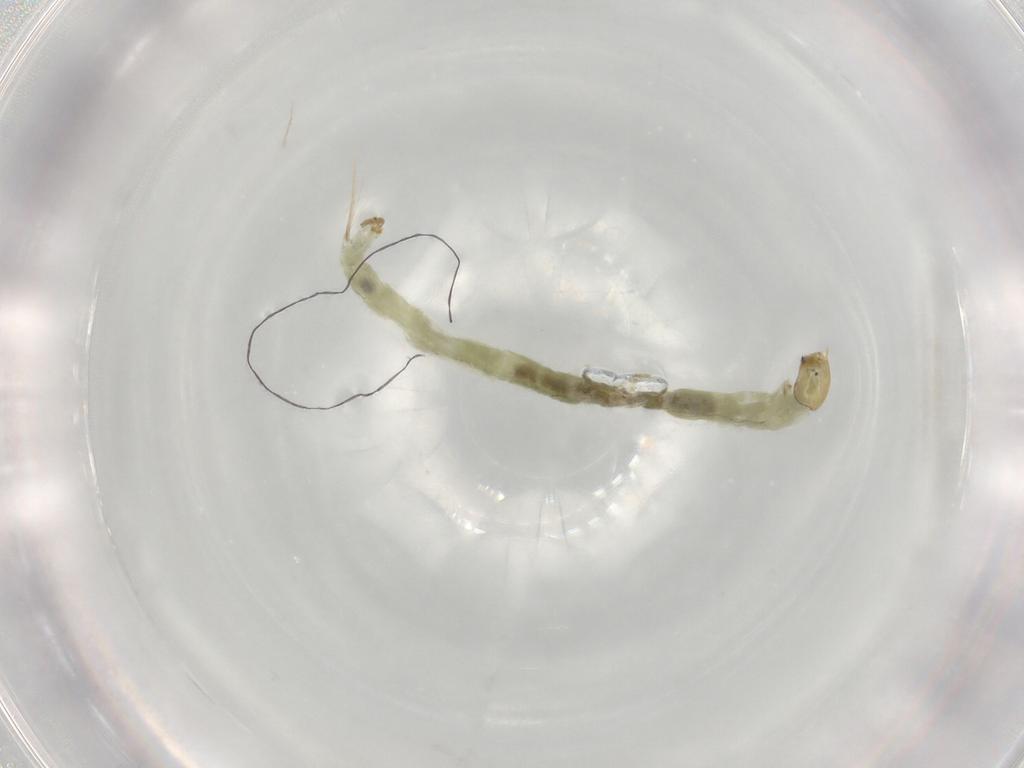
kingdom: Animalia
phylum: Arthropoda
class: Insecta
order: Diptera
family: Chironomidae
